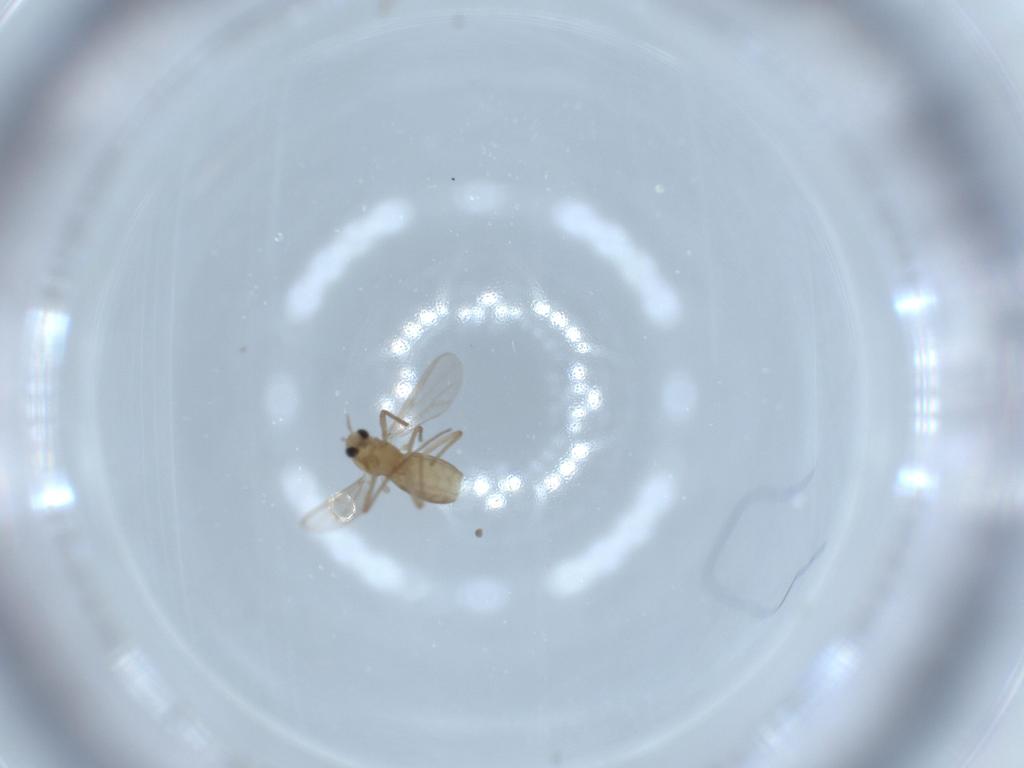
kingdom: Animalia
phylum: Arthropoda
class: Insecta
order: Diptera
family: Chironomidae
